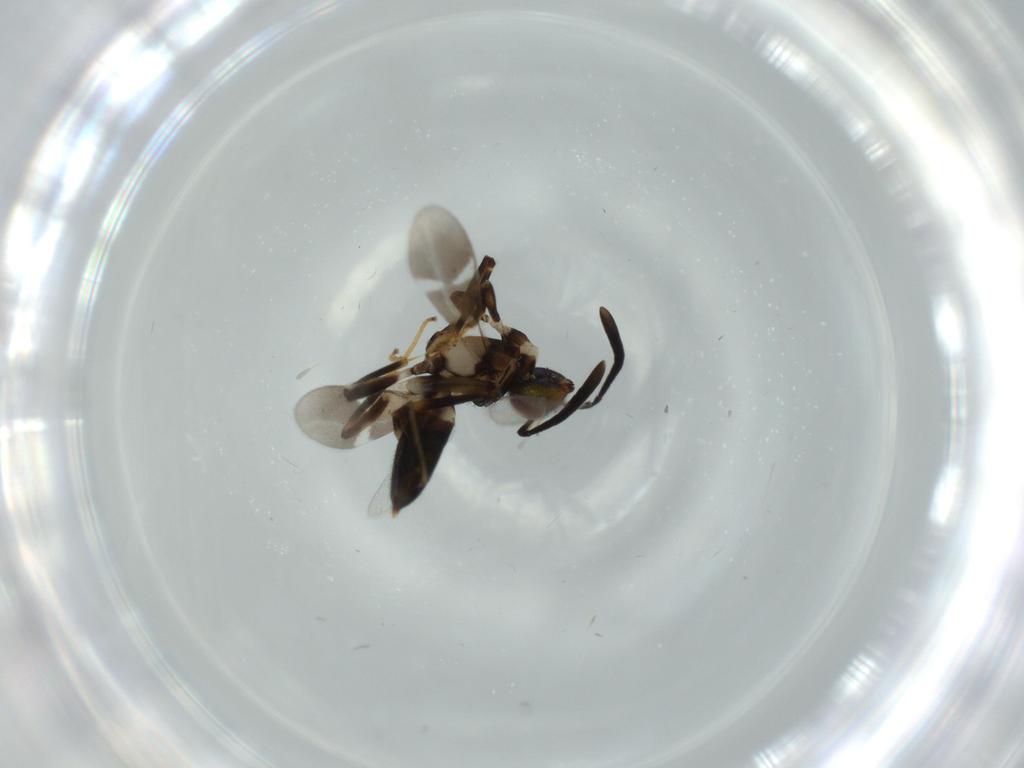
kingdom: Animalia
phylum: Arthropoda
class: Insecta
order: Hymenoptera
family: Eupelmidae
